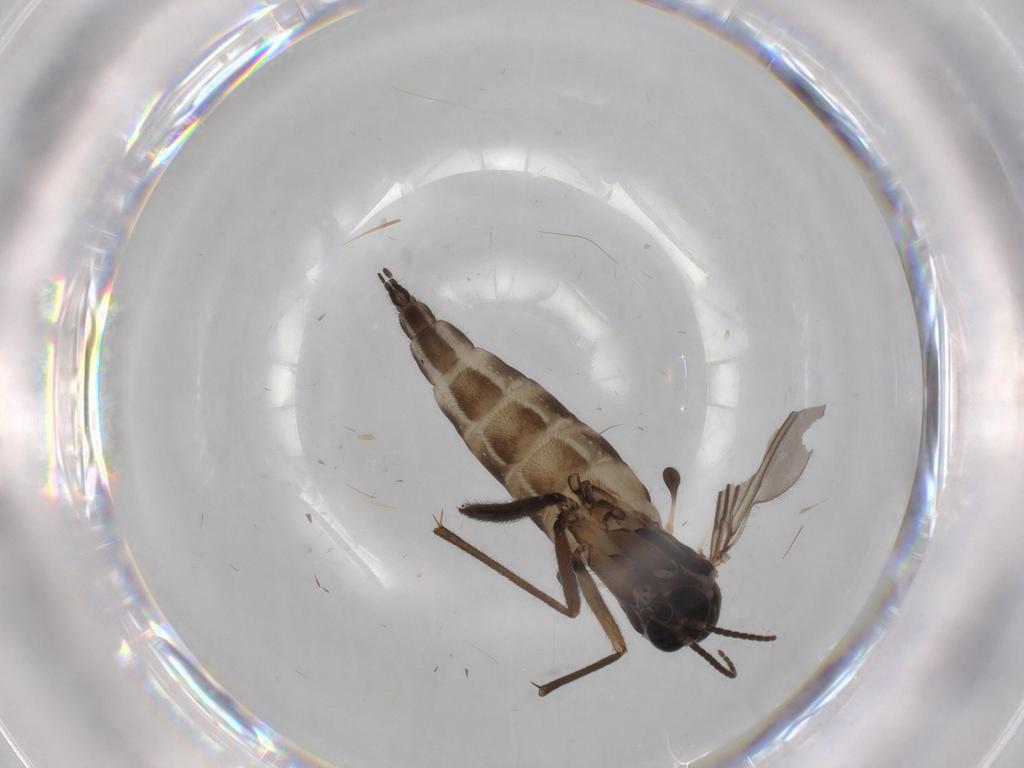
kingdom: Animalia
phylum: Arthropoda
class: Insecta
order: Diptera
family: Sciaridae
